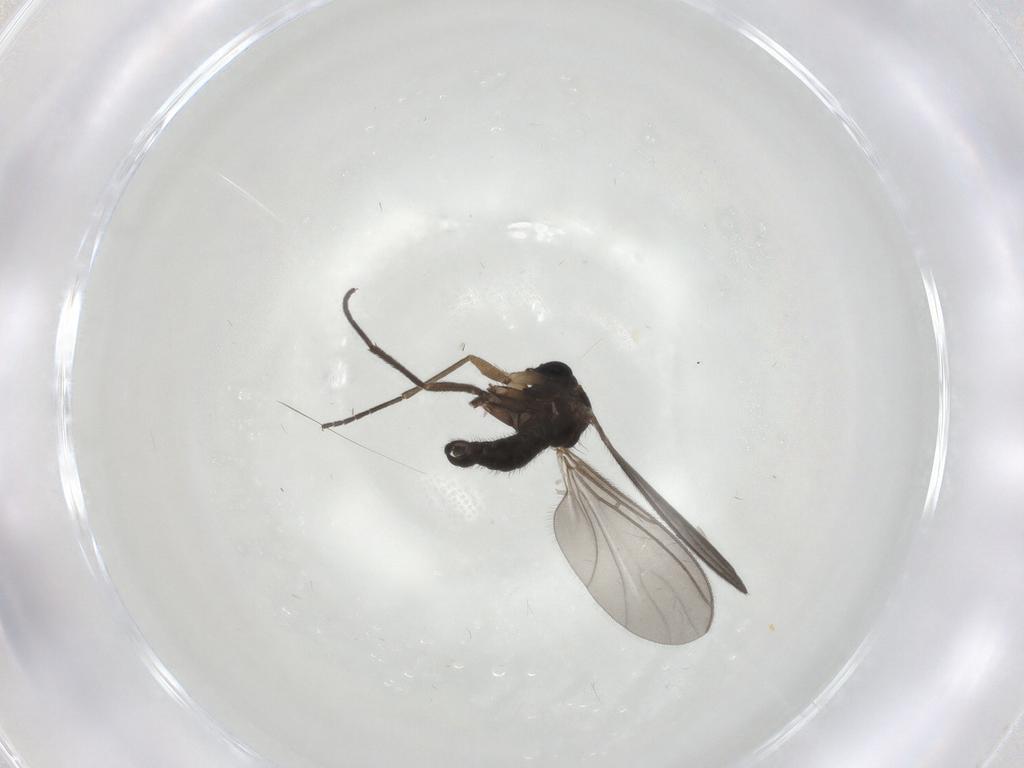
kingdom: Animalia
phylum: Arthropoda
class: Insecta
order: Diptera
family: Sciaridae
